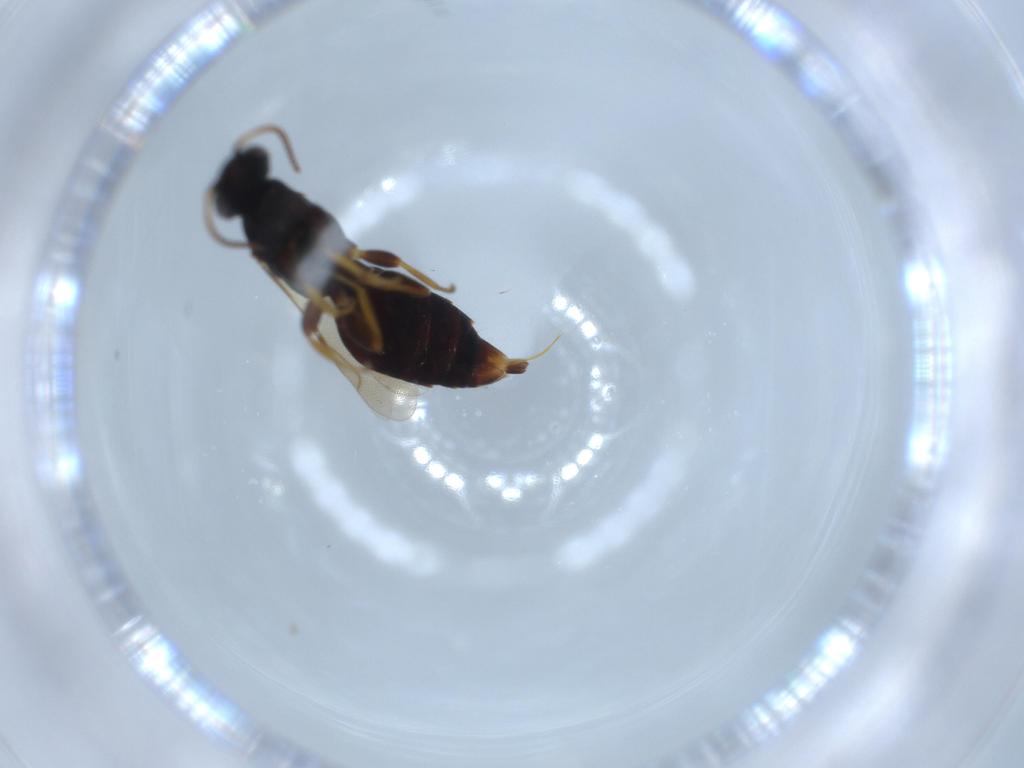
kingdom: Animalia
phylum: Arthropoda
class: Insecta
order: Hymenoptera
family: Bethylidae
